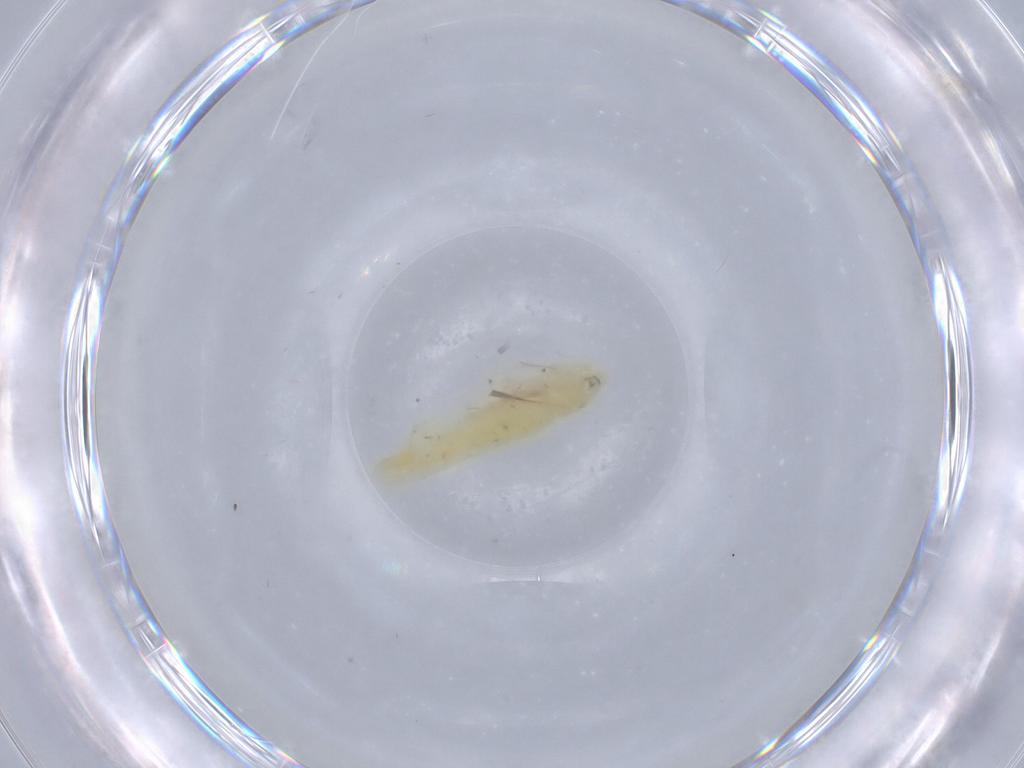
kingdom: Animalia
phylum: Arthropoda
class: Insecta
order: Hemiptera
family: Cicadellidae
